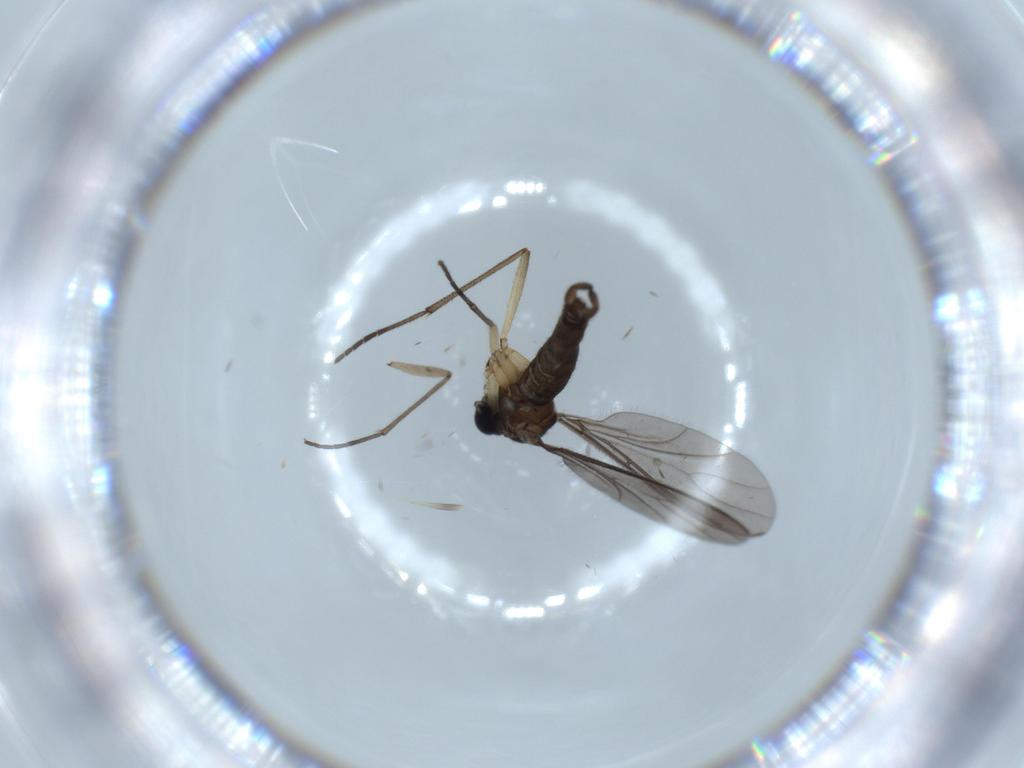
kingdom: Animalia
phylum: Arthropoda
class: Insecta
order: Diptera
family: Sciaridae
